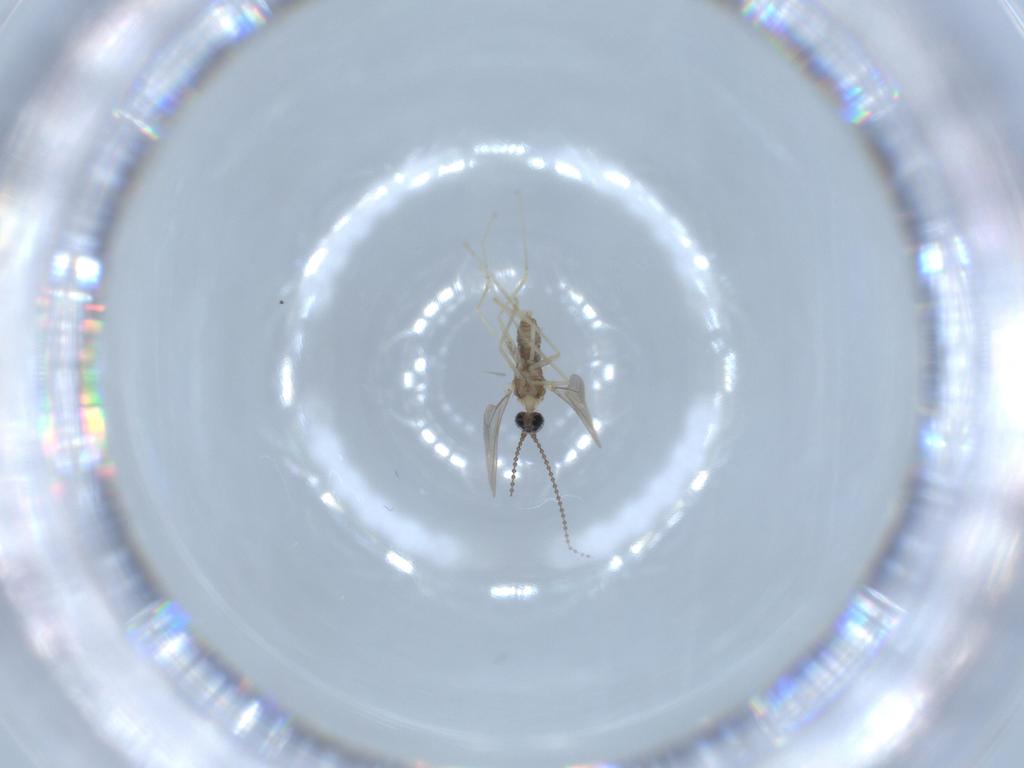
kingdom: Animalia
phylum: Arthropoda
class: Insecta
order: Diptera
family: Cecidomyiidae
